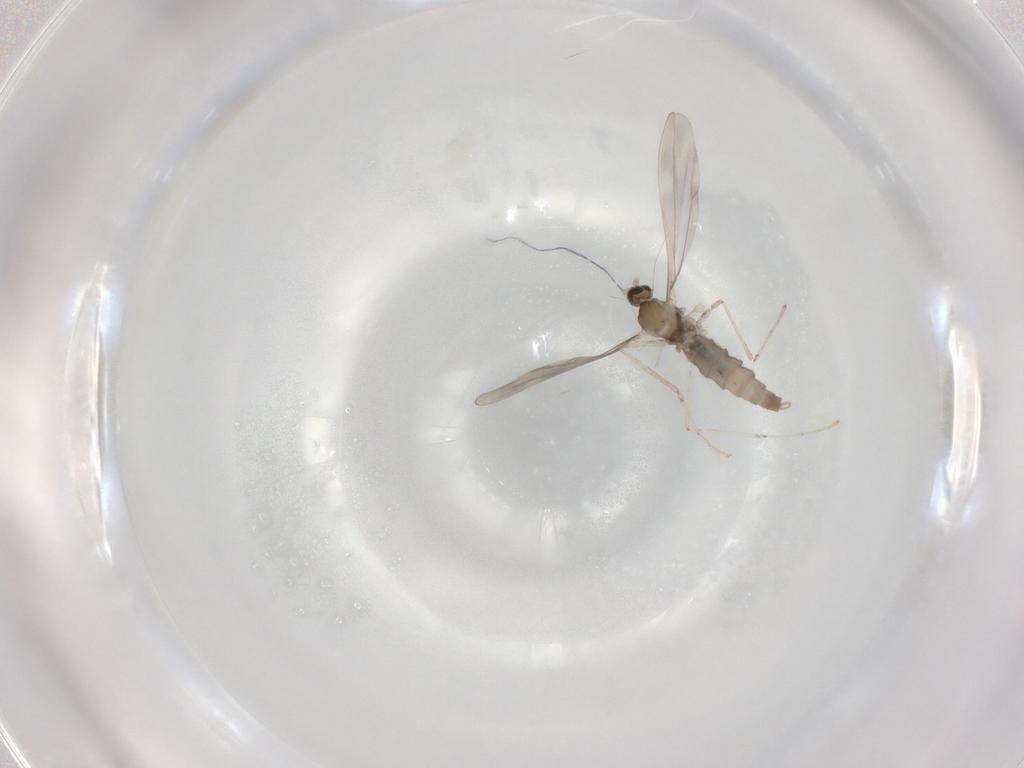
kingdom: Animalia
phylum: Arthropoda
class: Insecta
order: Diptera
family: Cecidomyiidae
